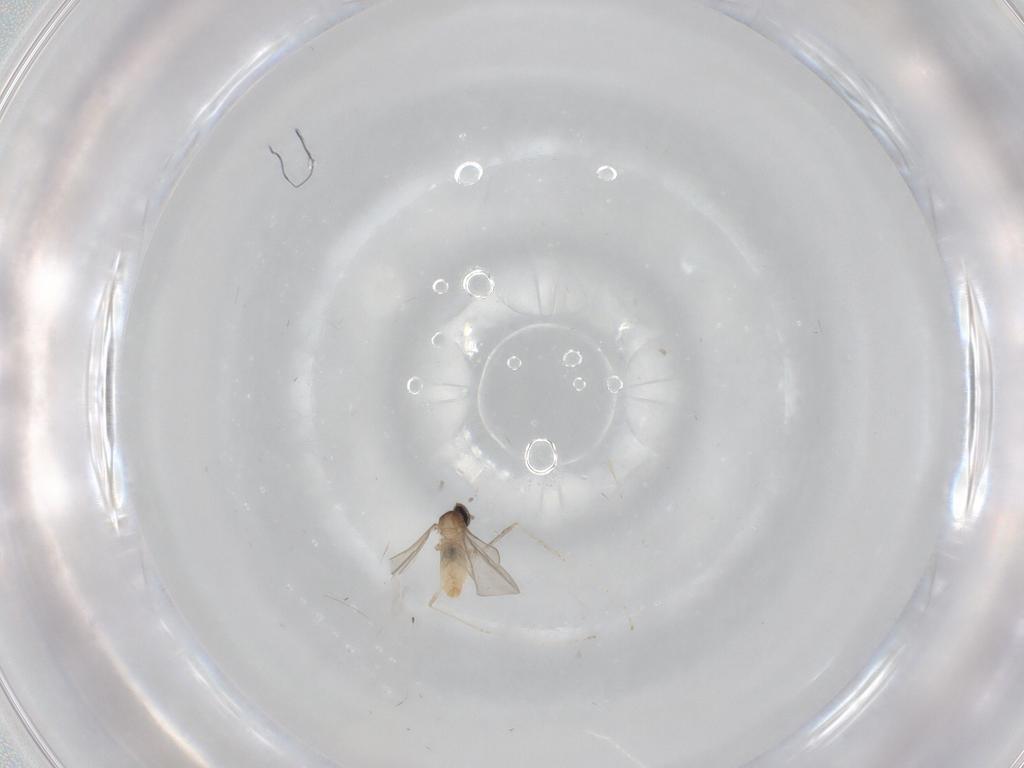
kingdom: Animalia
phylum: Arthropoda
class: Insecta
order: Diptera
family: Cecidomyiidae
